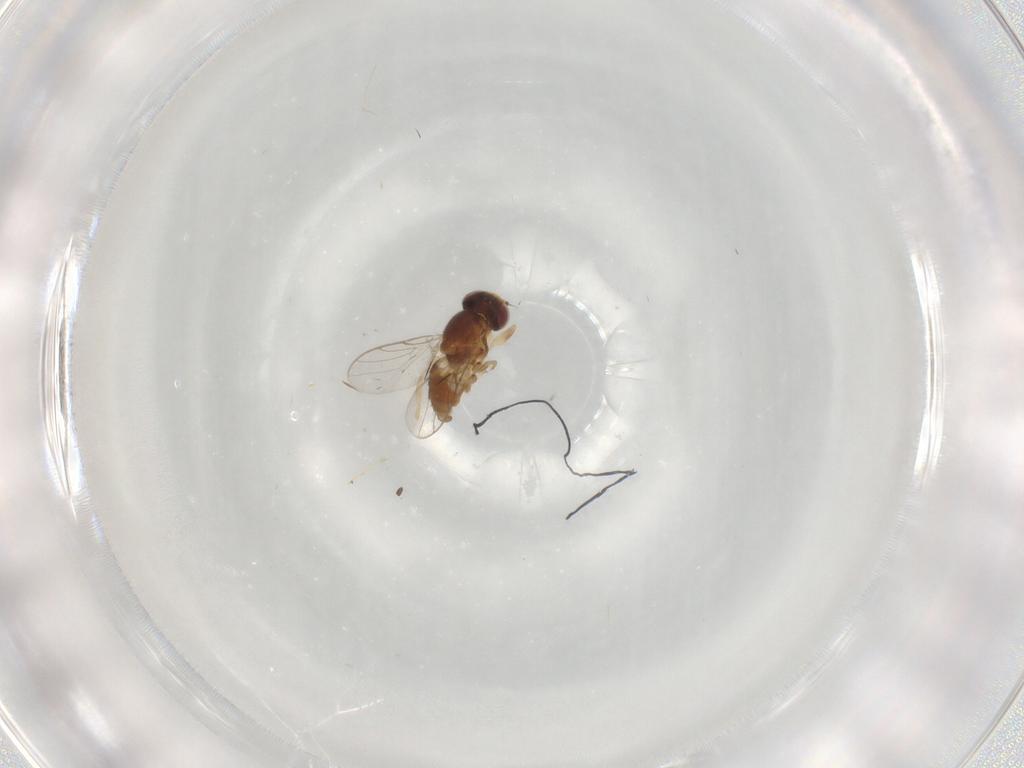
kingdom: Animalia
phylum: Arthropoda
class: Insecta
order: Diptera
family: Chloropidae
